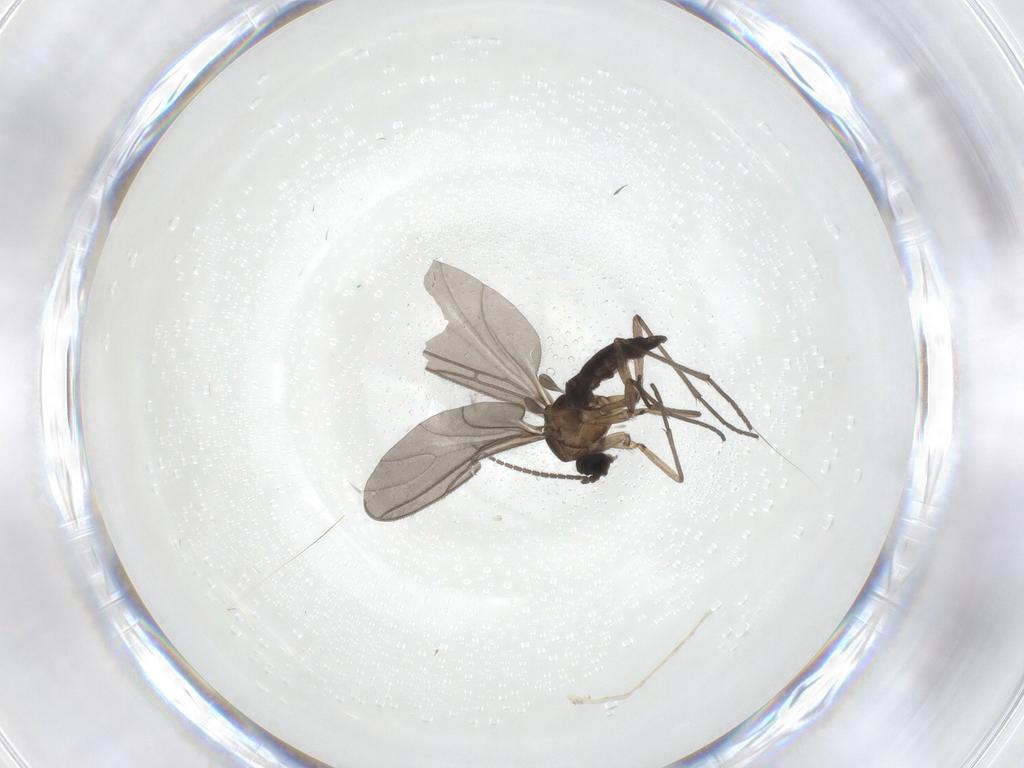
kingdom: Animalia
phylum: Arthropoda
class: Insecta
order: Diptera
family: Sciaridae
